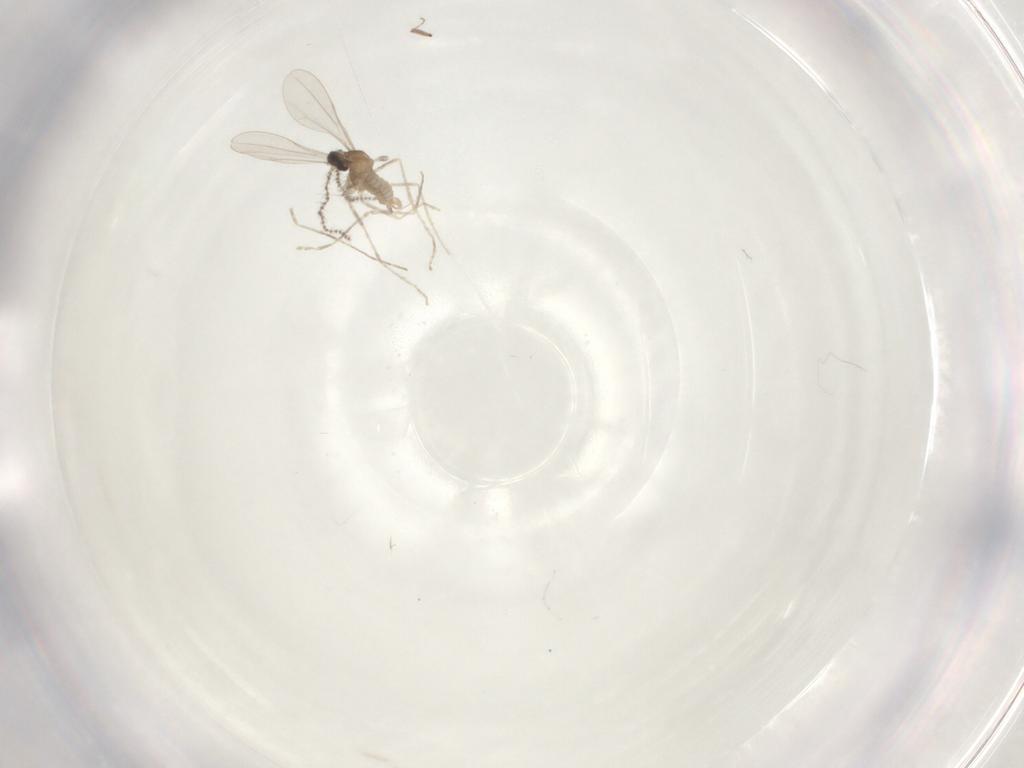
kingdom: Animalia
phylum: Arthropoda
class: Insecta
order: Diptera
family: Cecidomyiidae
